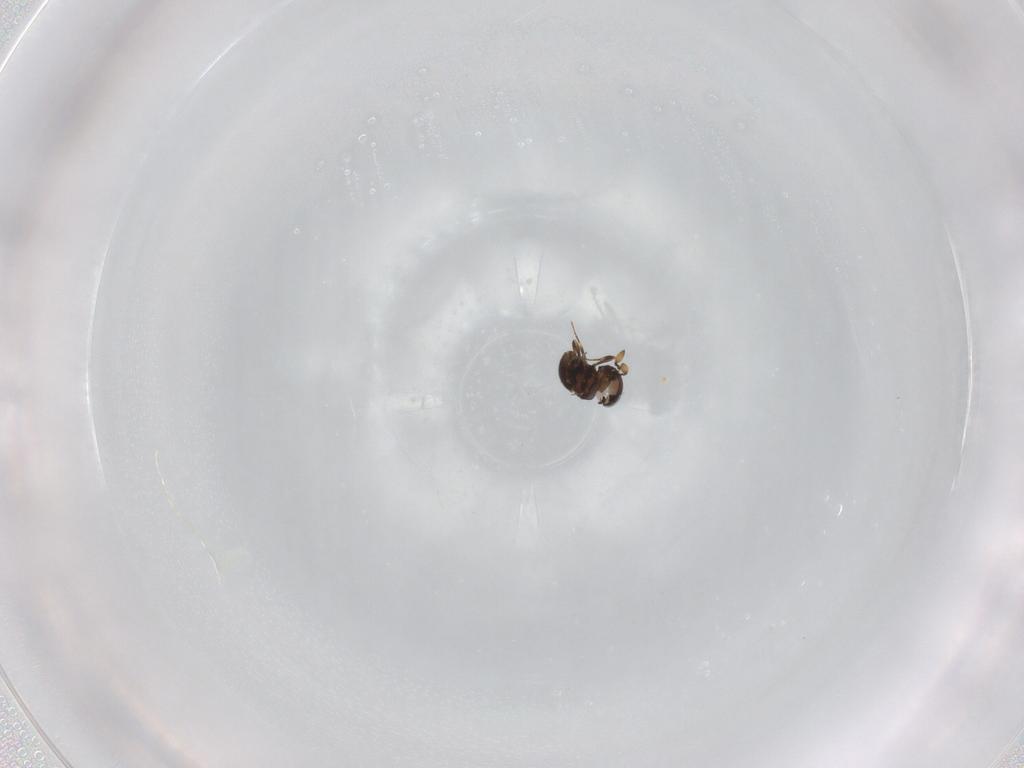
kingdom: Animalia
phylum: Arthropoda
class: Insecta
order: Hymenoptera
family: Scelionidae
